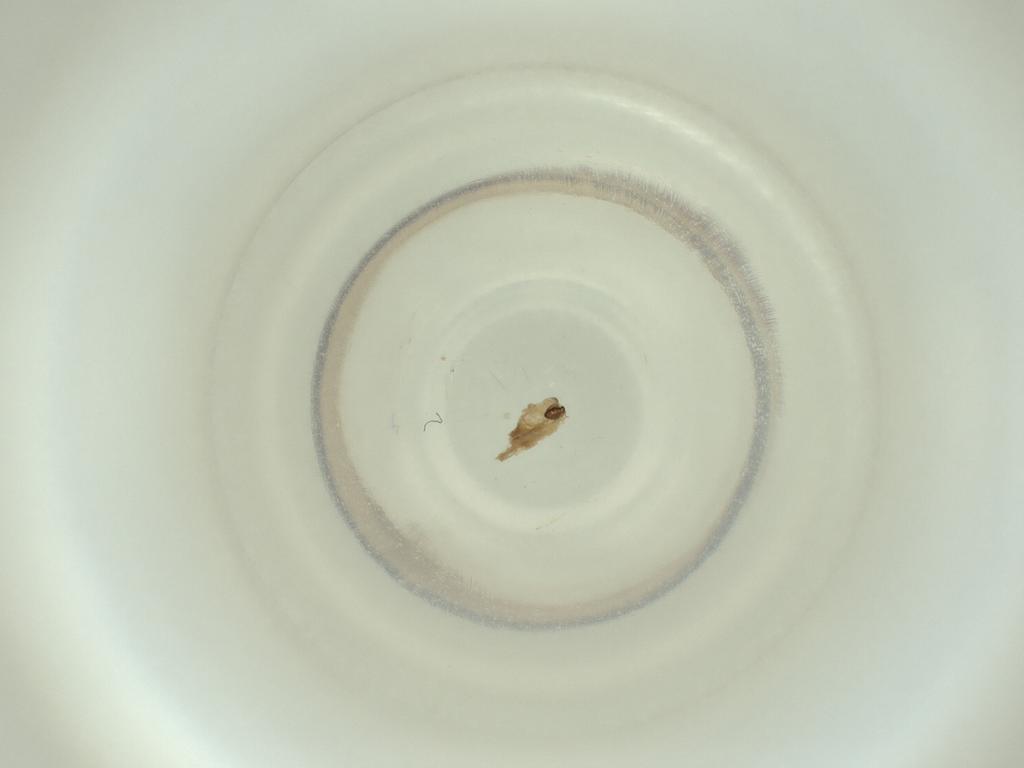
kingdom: Animalia
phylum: Arthropoda
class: Insecta
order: Diptera
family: Cecidomyiidae
